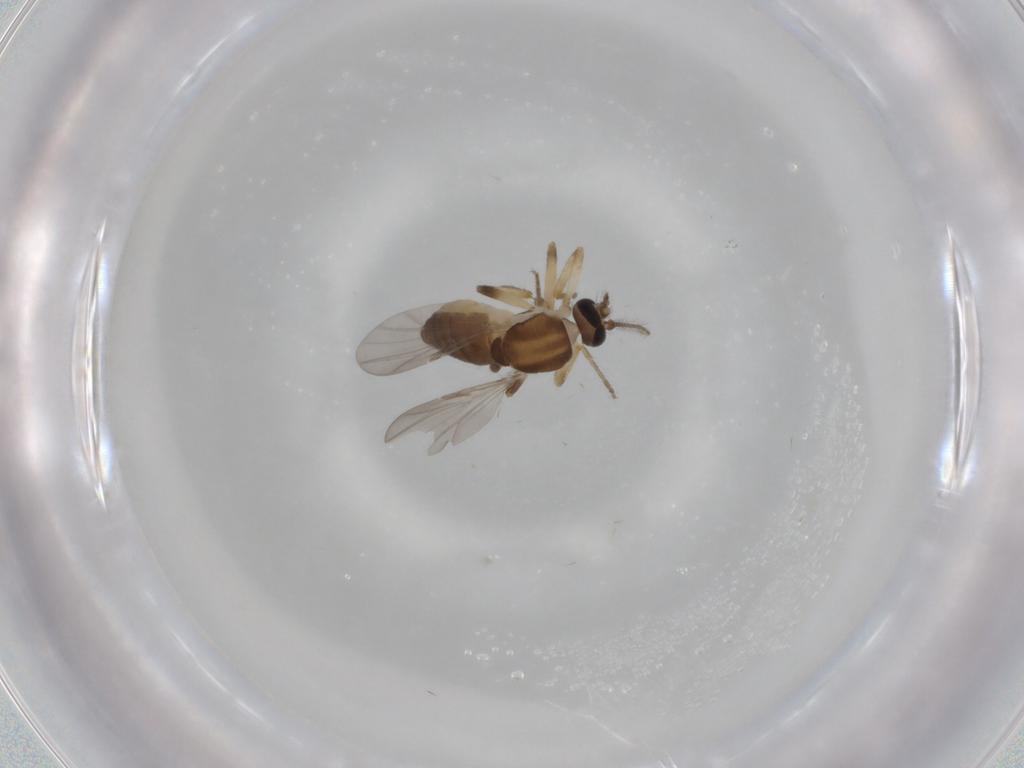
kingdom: Animalia
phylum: Arthropoda
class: Insecta
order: Diptera
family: Ceratopogonidae
